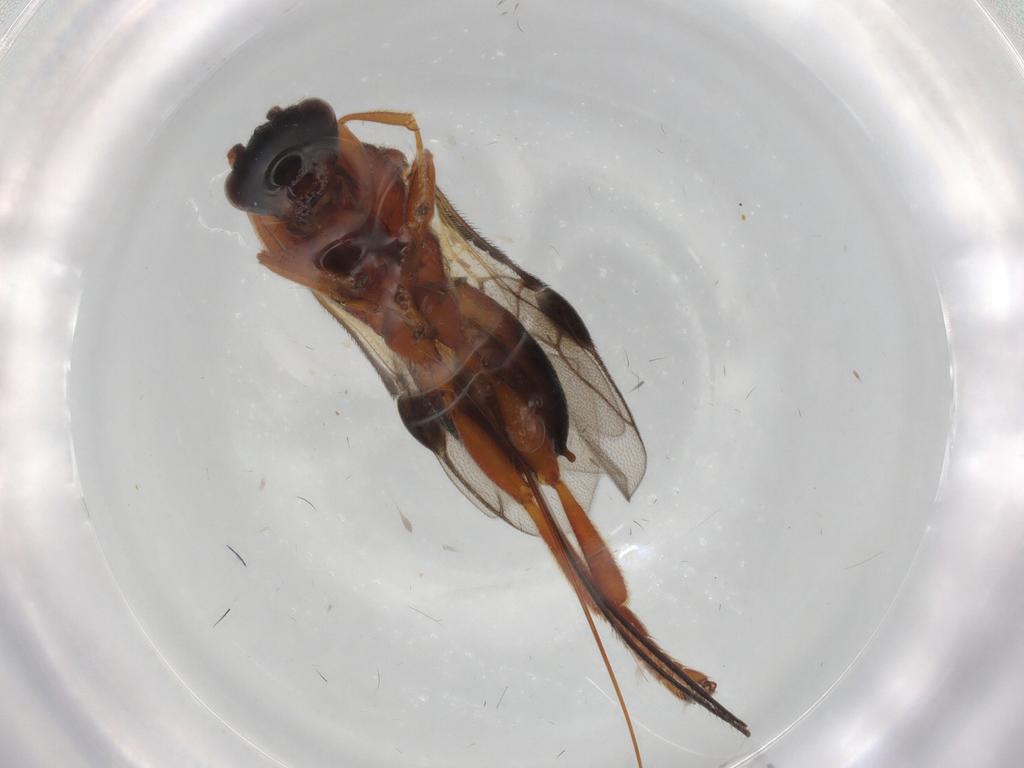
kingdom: Animalia
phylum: Arthropoda
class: Insecta
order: Hymenoptera
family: Braconidae
